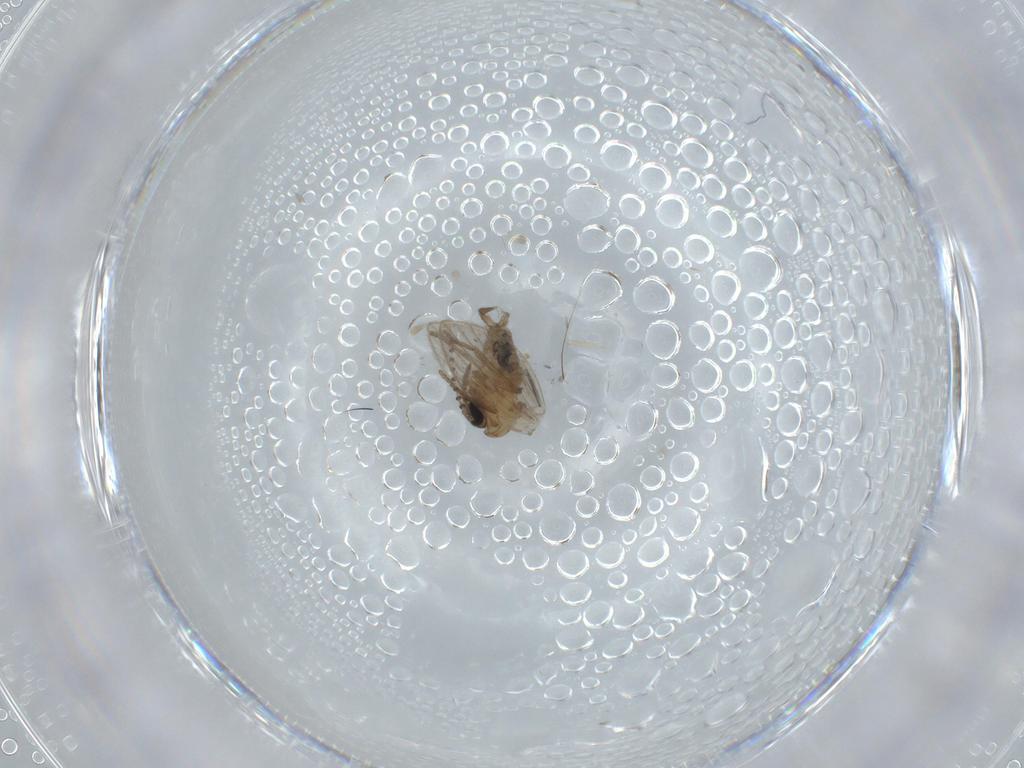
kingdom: Animalia
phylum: Arthropoda
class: Insecta
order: Diptera
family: Psychodidae
